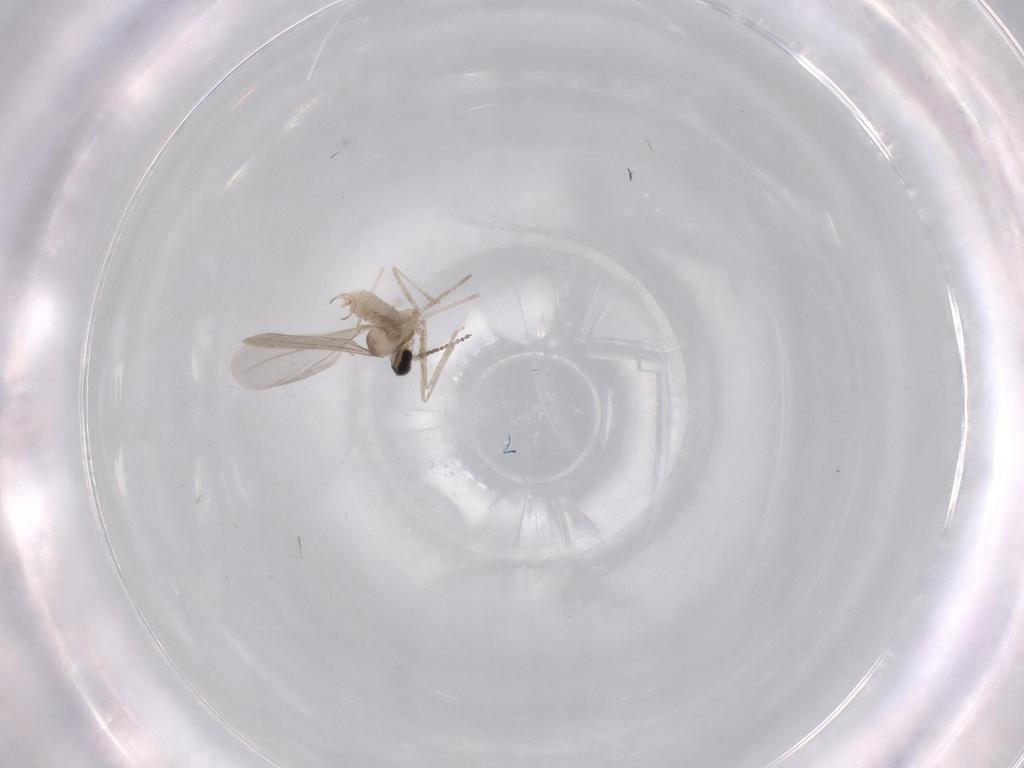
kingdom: Animalia
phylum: Arthropoda
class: Insecta
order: Diptera
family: Cecidomyiidae
